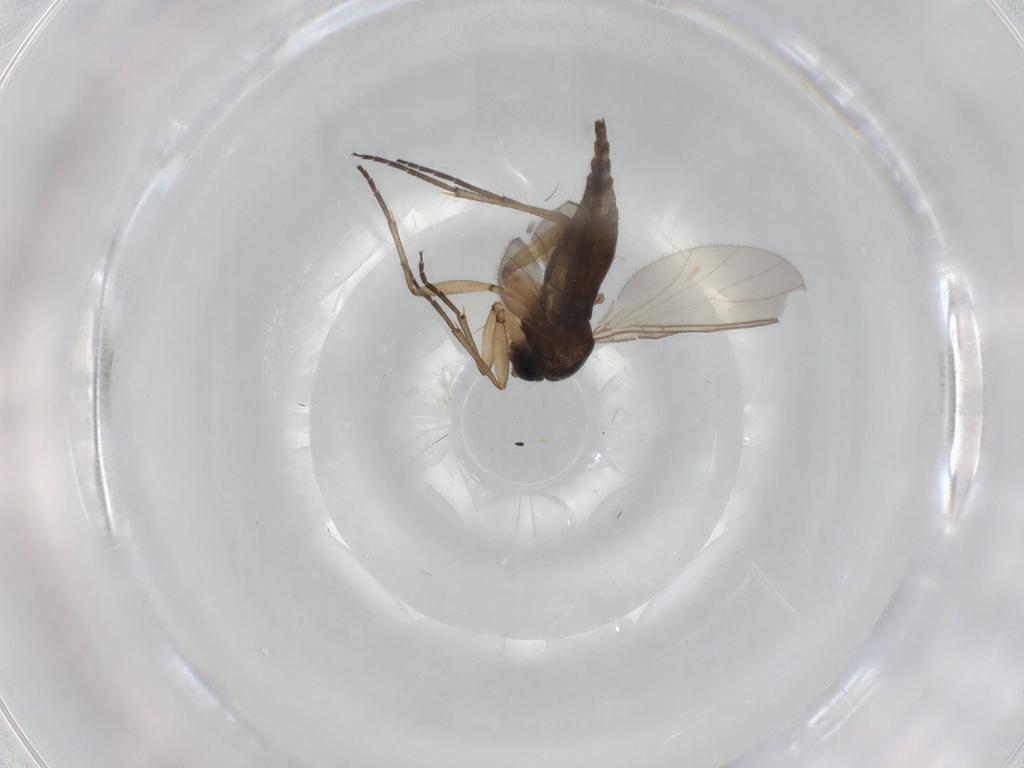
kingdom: Animalia
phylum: Arthropoda
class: Insecta
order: Diptera
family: Sciaridae
